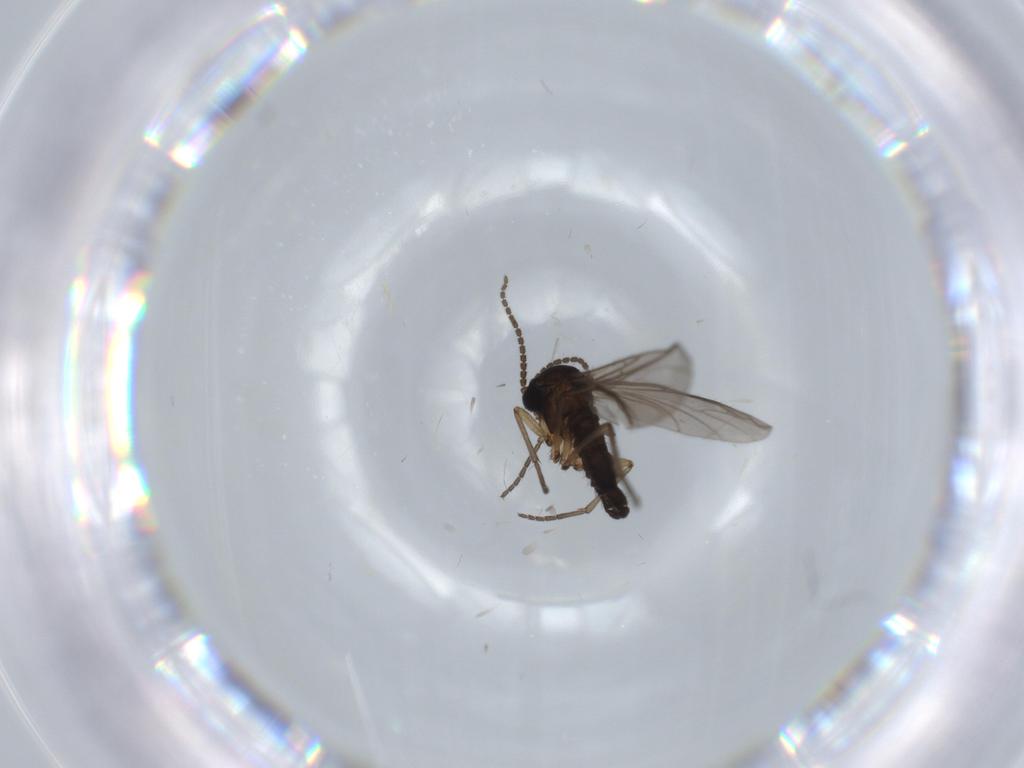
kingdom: Animalia
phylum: Arthropoda
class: Insecta
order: Diptera
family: Sciaridae
